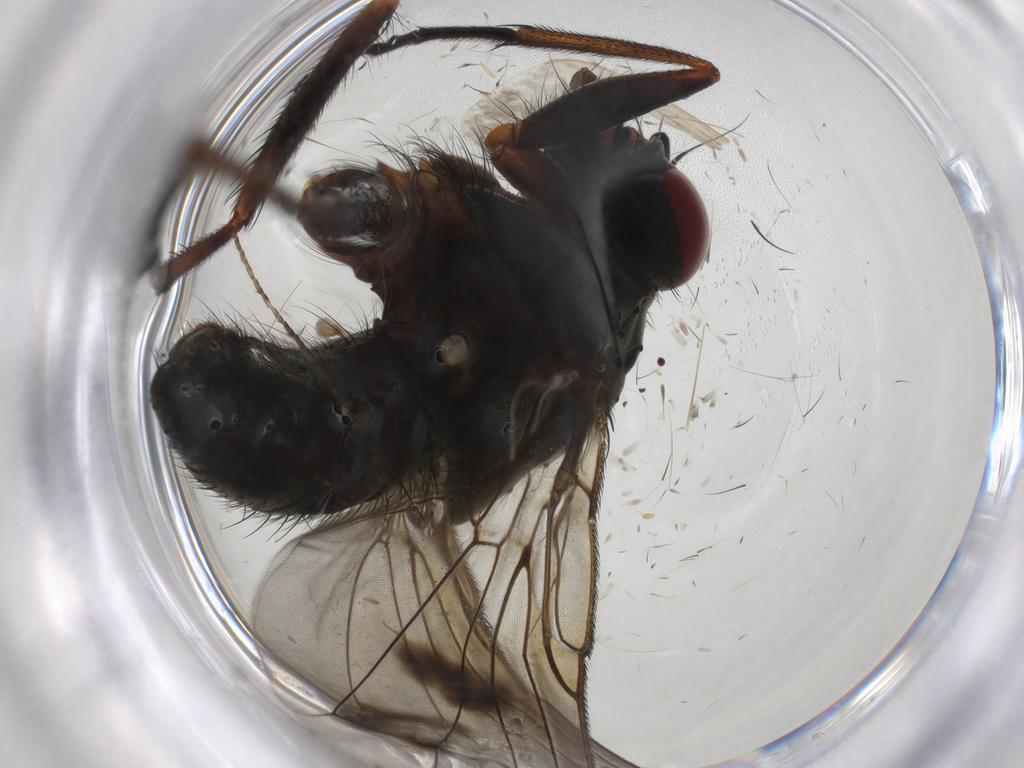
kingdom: Animalia
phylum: Arthropoda
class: Insecta
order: Diptera
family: Muscidae
